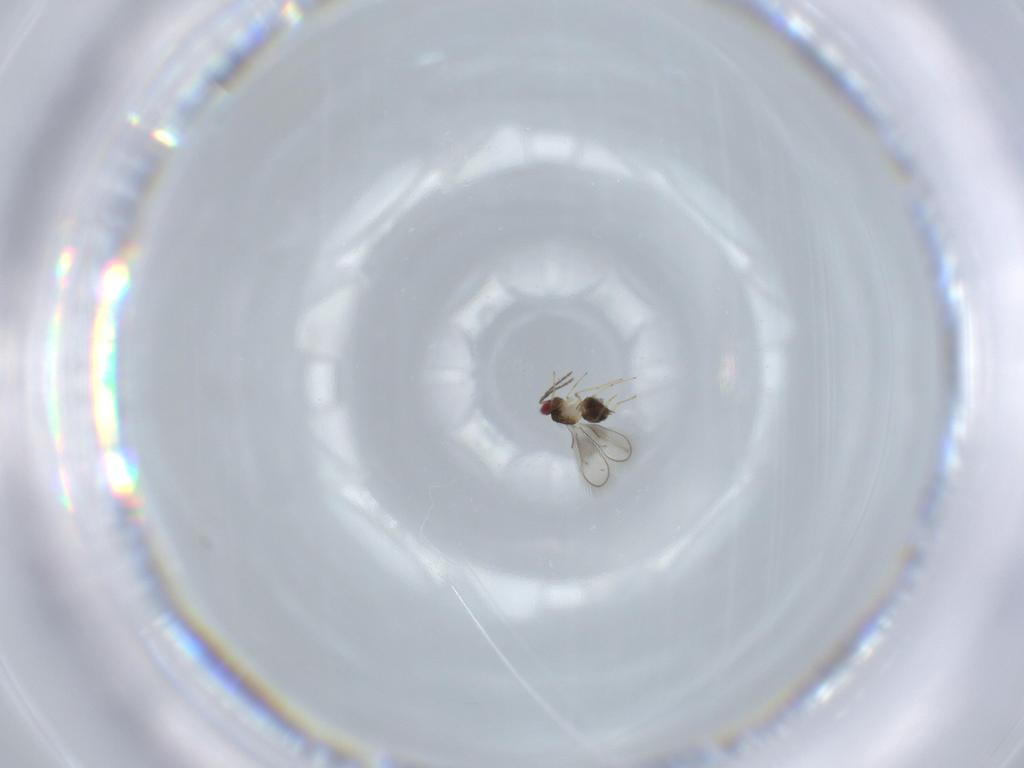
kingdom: Animalia
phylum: Arthropoda
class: Insecta
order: Hymenoptera
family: Trichogrammatidae
